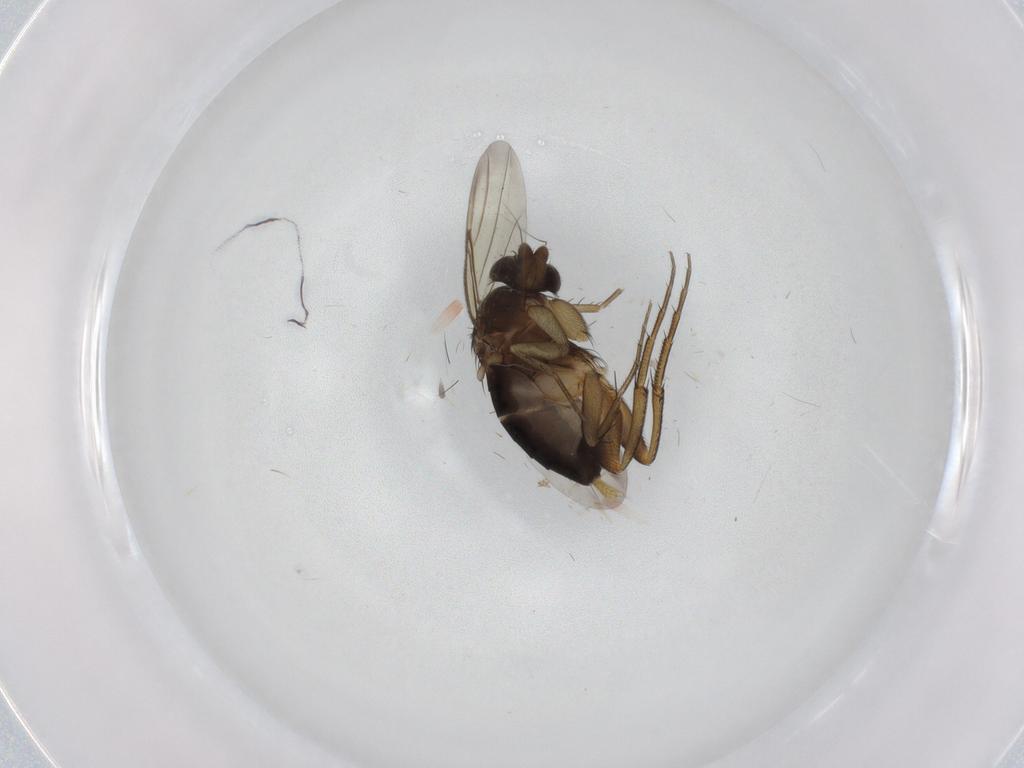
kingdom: Animalia
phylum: Arthropoda
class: Insecta
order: Diptera
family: Phoridae
